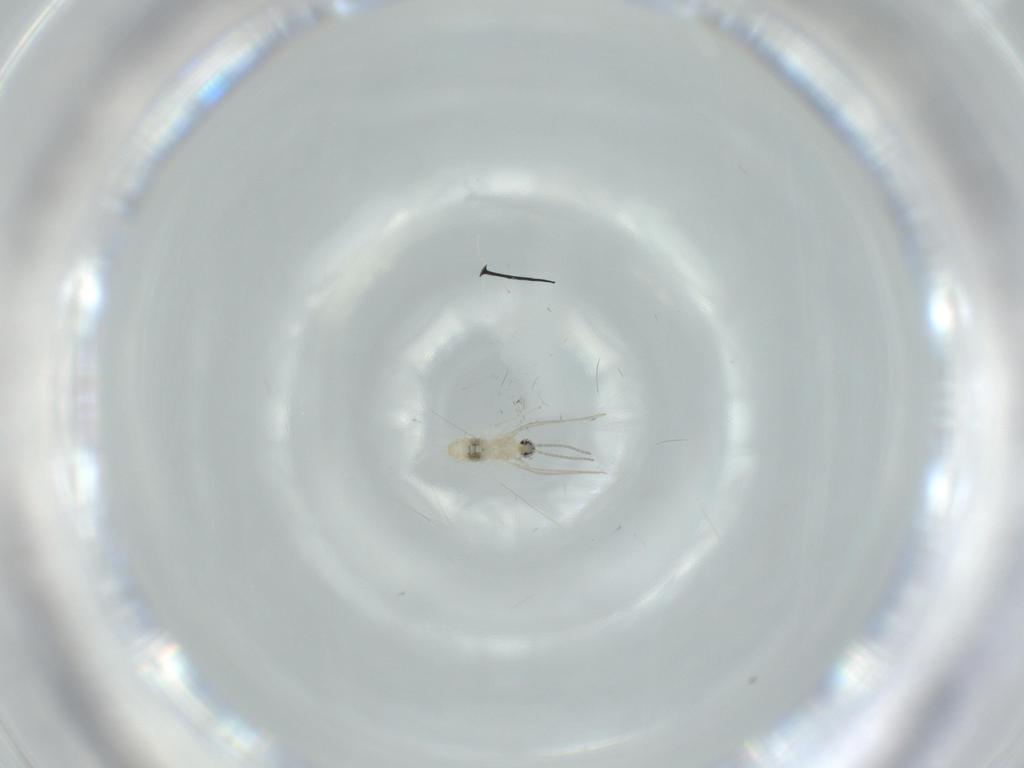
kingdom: Animalia
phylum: Arthropoda
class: Insecta
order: Diptera
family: Cecidomyiidae
